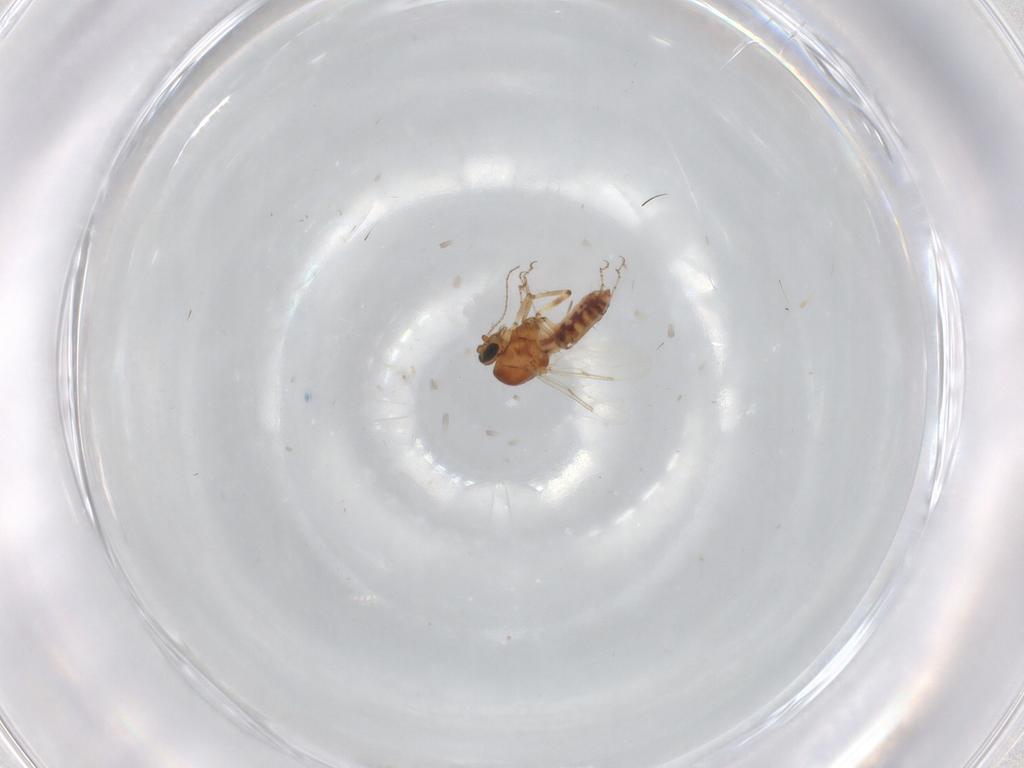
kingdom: Animalia
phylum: Arthropoda
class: Insecta
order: Diptera
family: Ceratopogonidae
